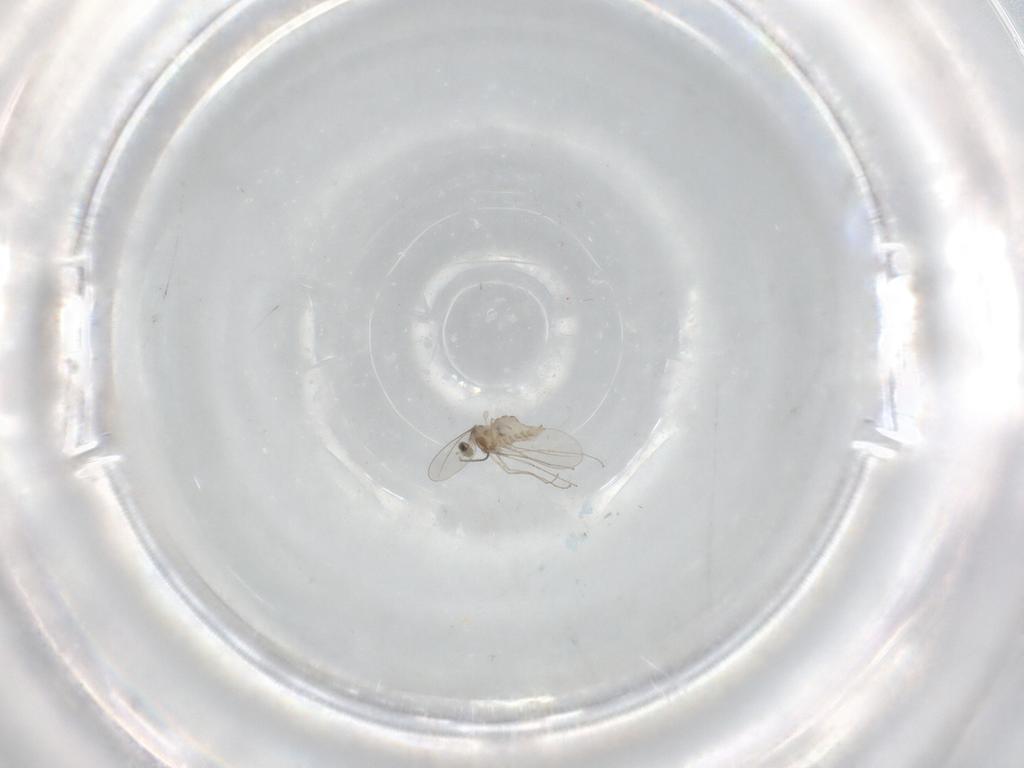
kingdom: Animalia
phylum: Arthropoda
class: Insecta
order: Diptera
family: Cecidomyiidae
